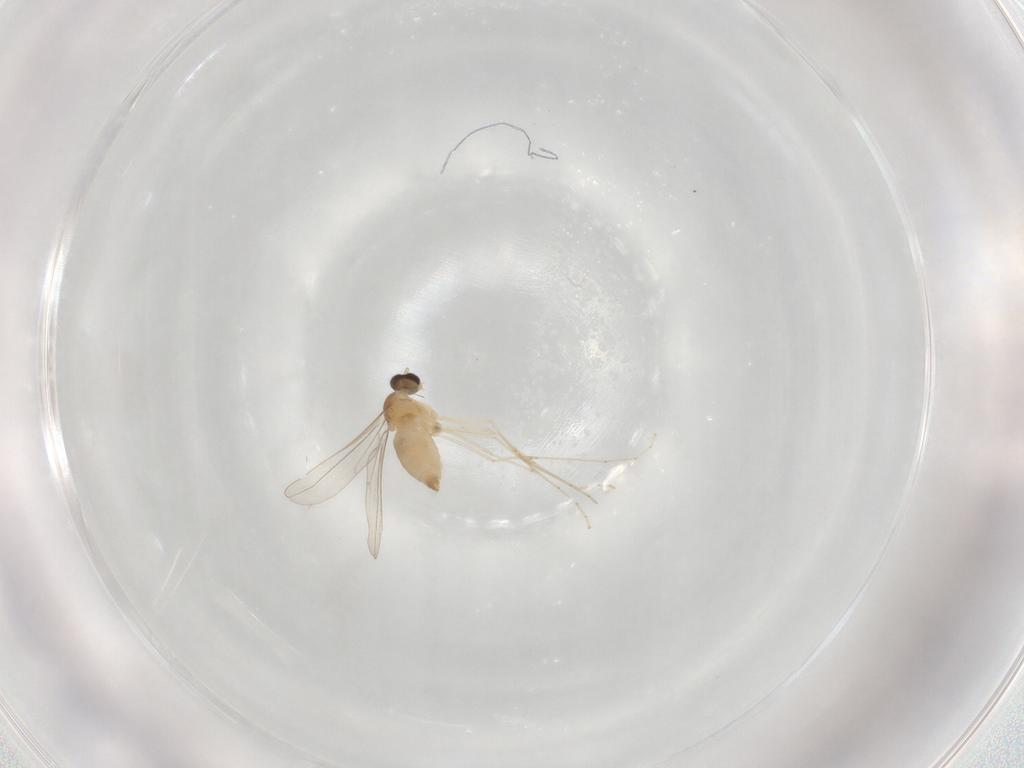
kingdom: Animalia
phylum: Arthropoda
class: Insecta
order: Diptera
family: Cecidomyiidae
